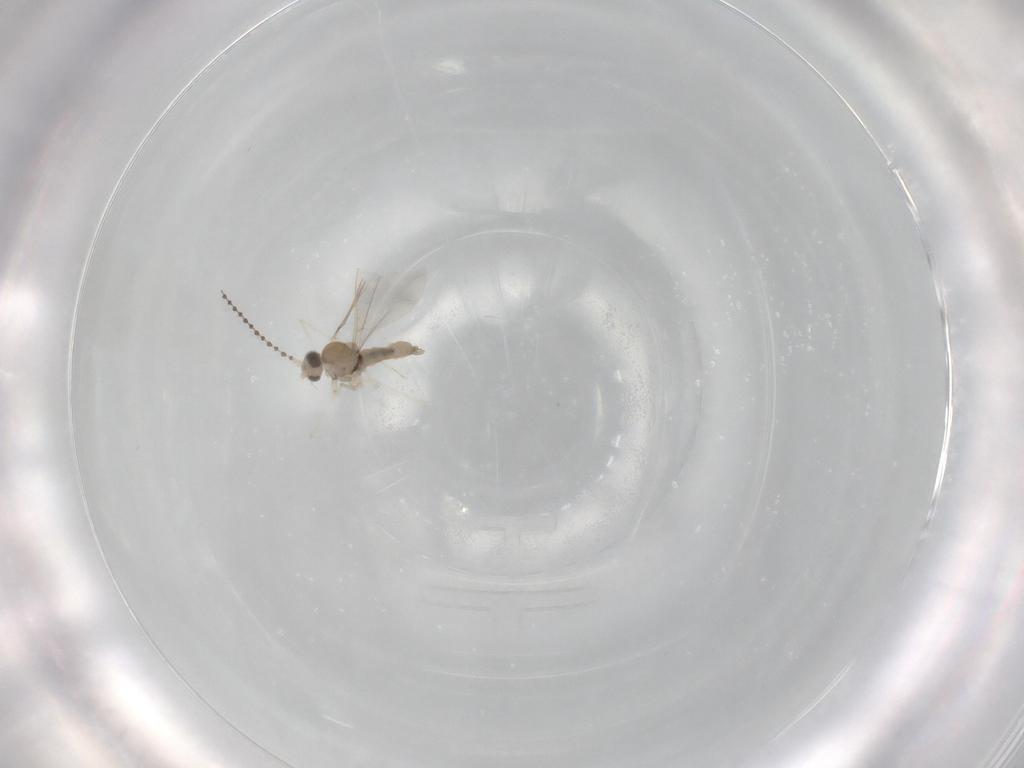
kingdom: Animalia
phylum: Arthropoda
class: Insecta
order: Diptera
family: Cecidomyiidae
